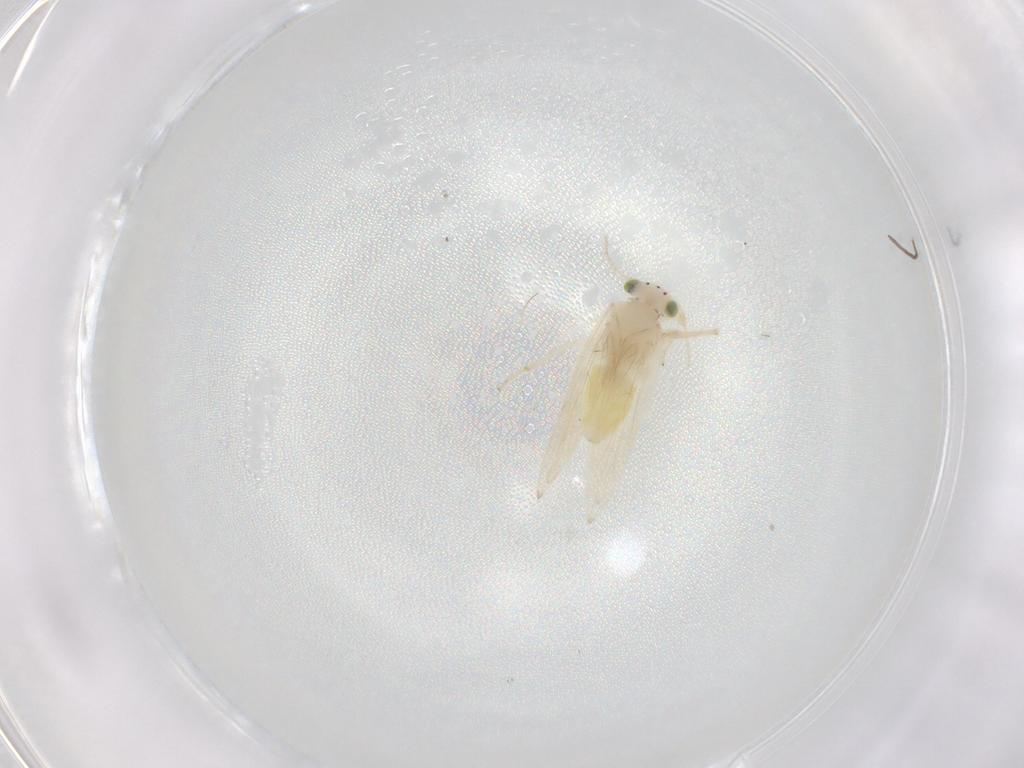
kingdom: Animalia
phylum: Arthropoda
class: Insecta
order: Psocodea
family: Lepidopsocidae
